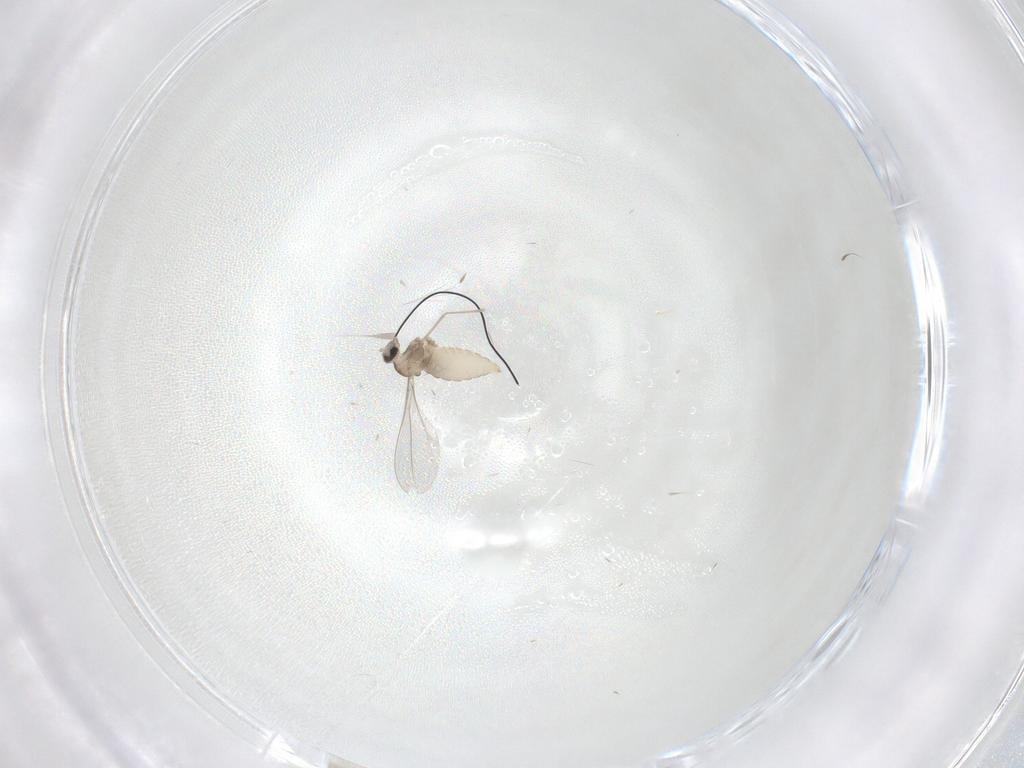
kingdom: Animalia
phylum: Arthropoda
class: Insecta
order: Diptera
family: Cecidomyiidae
